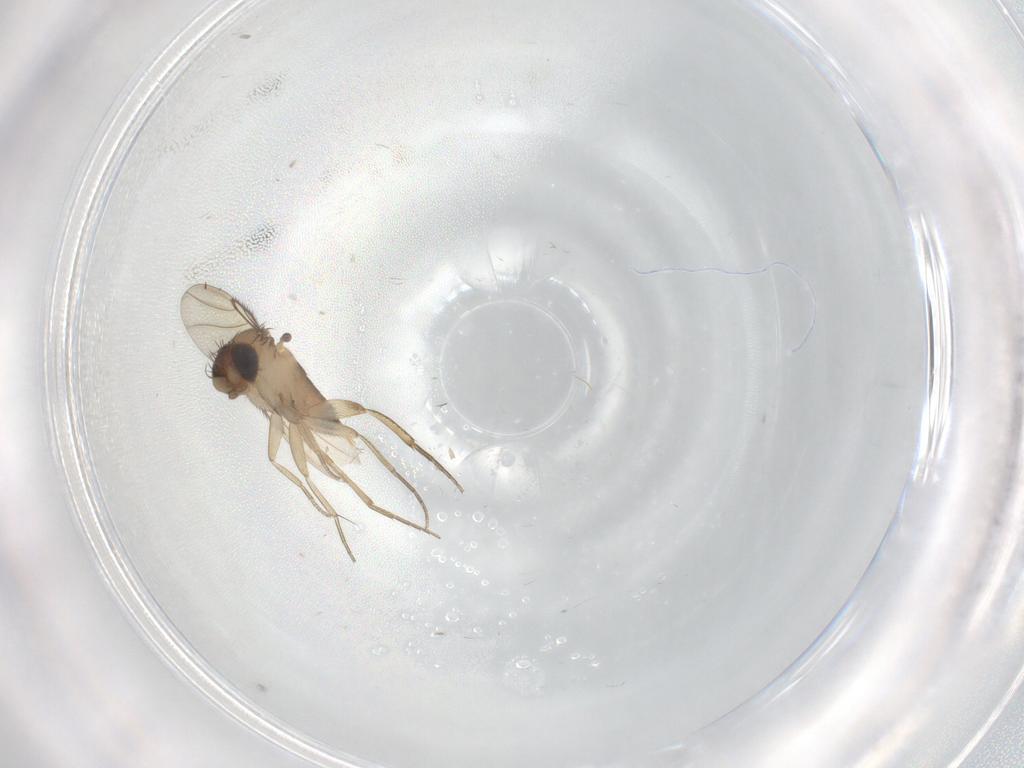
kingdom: Animalia
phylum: Arthropoda
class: Insecta
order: Diptera
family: Phoridae
